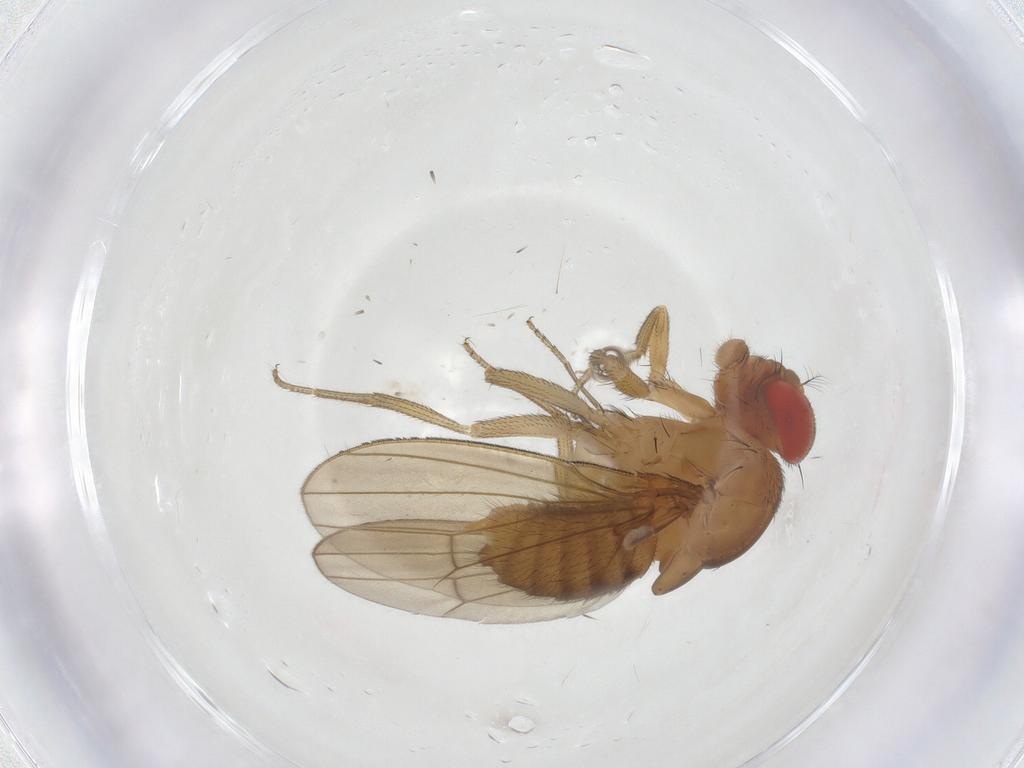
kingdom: Animalia
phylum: Arthropoda
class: Insecta
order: Diptera
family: Drosophilidae
